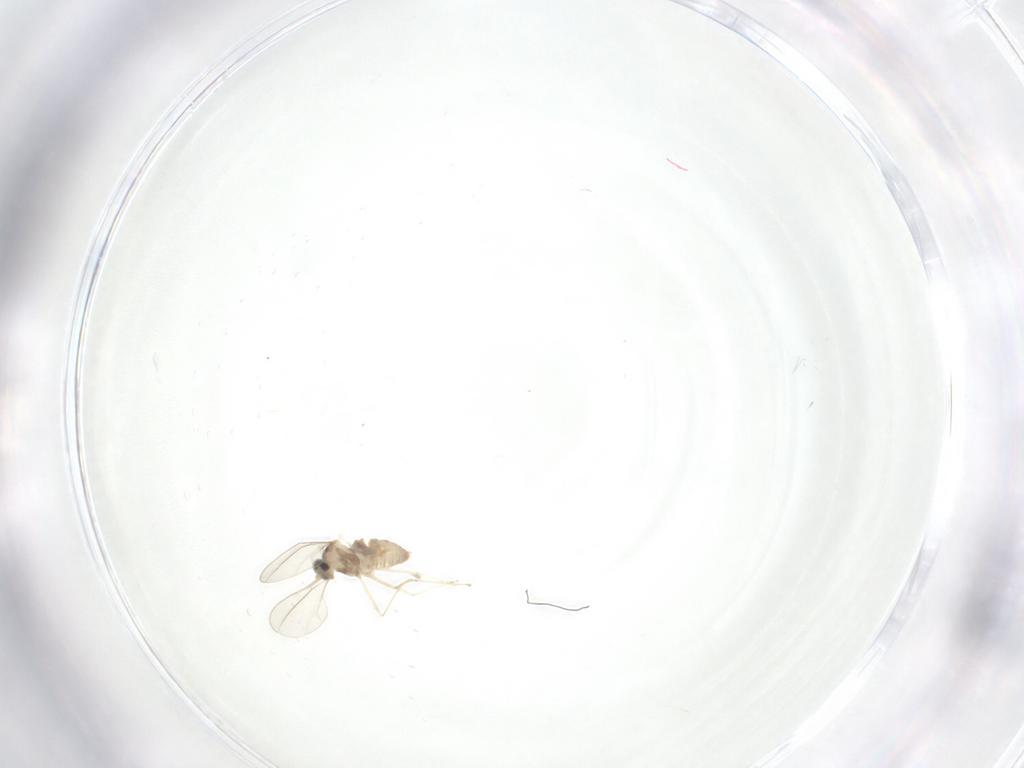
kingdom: Animalia
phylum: Arthropoda
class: Insecta
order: Diptera
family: Cecidomyiidae
